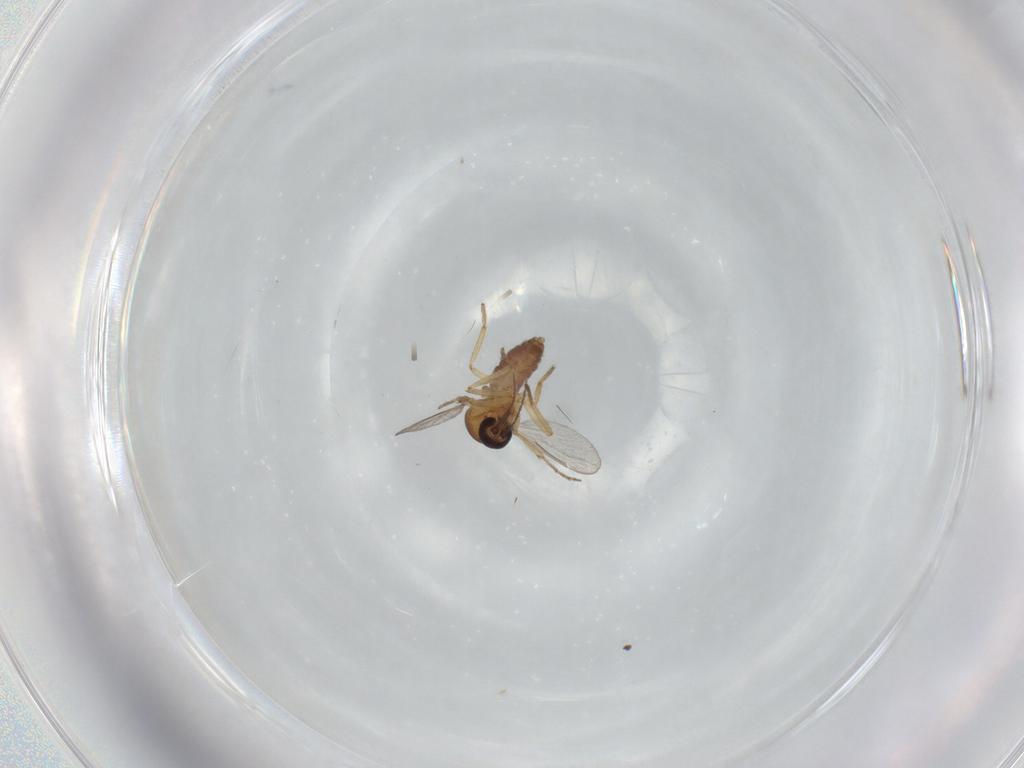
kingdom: Animalia
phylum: Arthropoda
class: Insecta
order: Diptera
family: Ceratopogonidae
